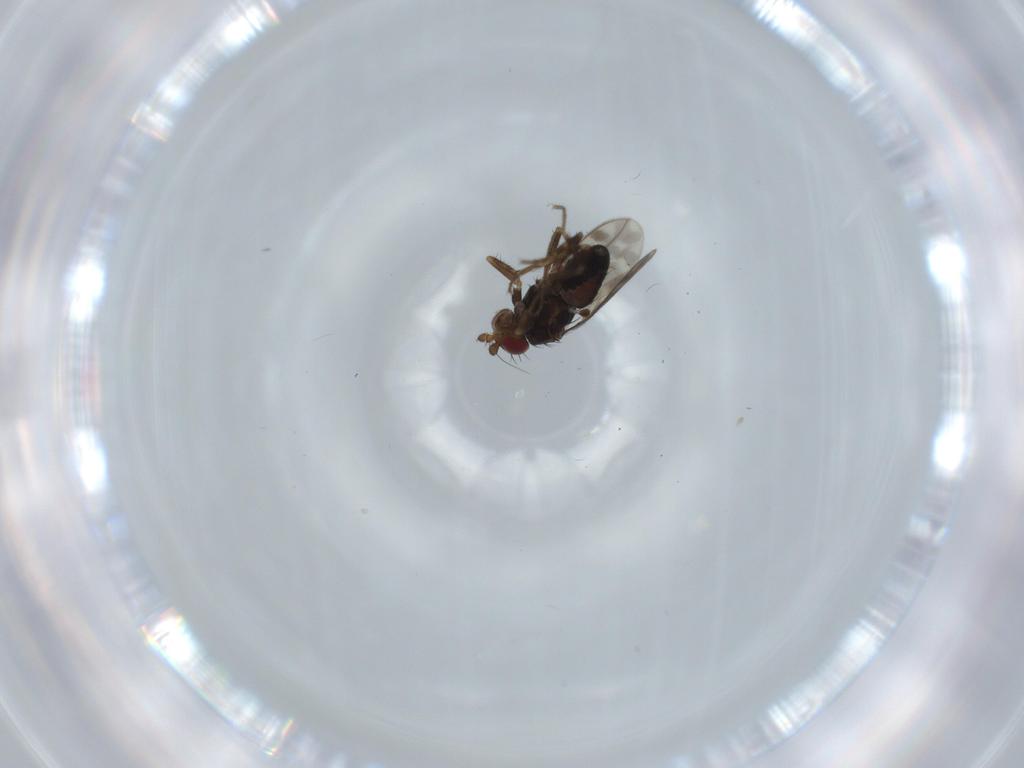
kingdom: Animalia
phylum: Arthropoda
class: Insecta
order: Diptera
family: Sphaeroceridae
